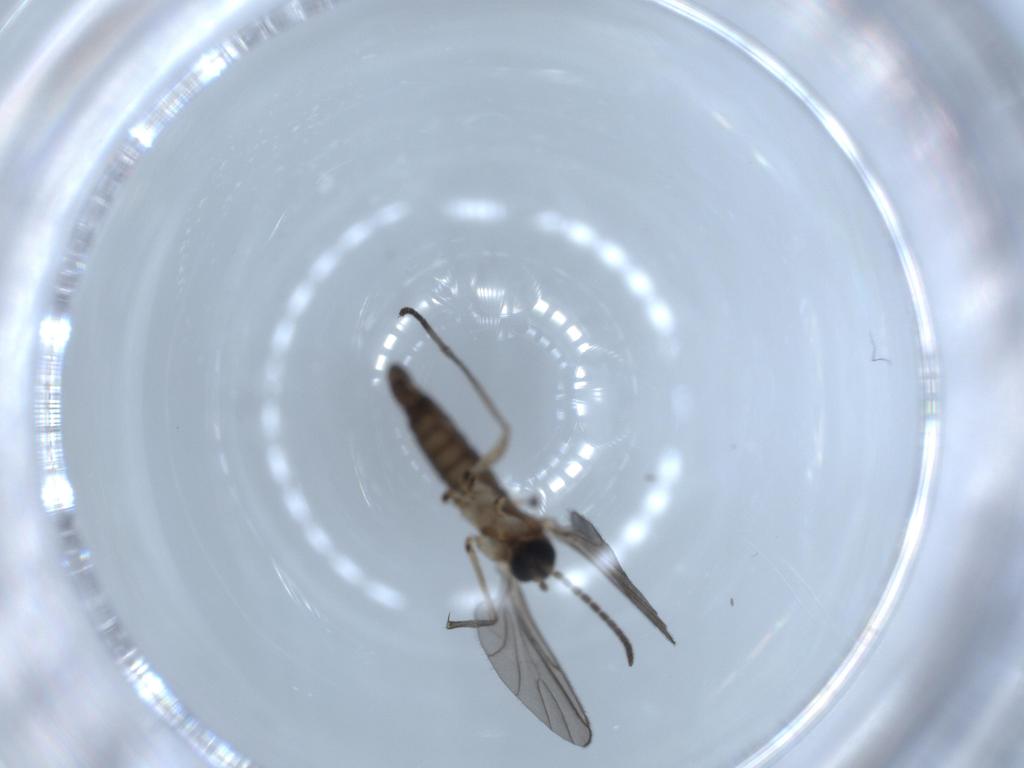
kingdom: Animalia
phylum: Arthropoda
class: Insecta
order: Diptera
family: Sciaridae
